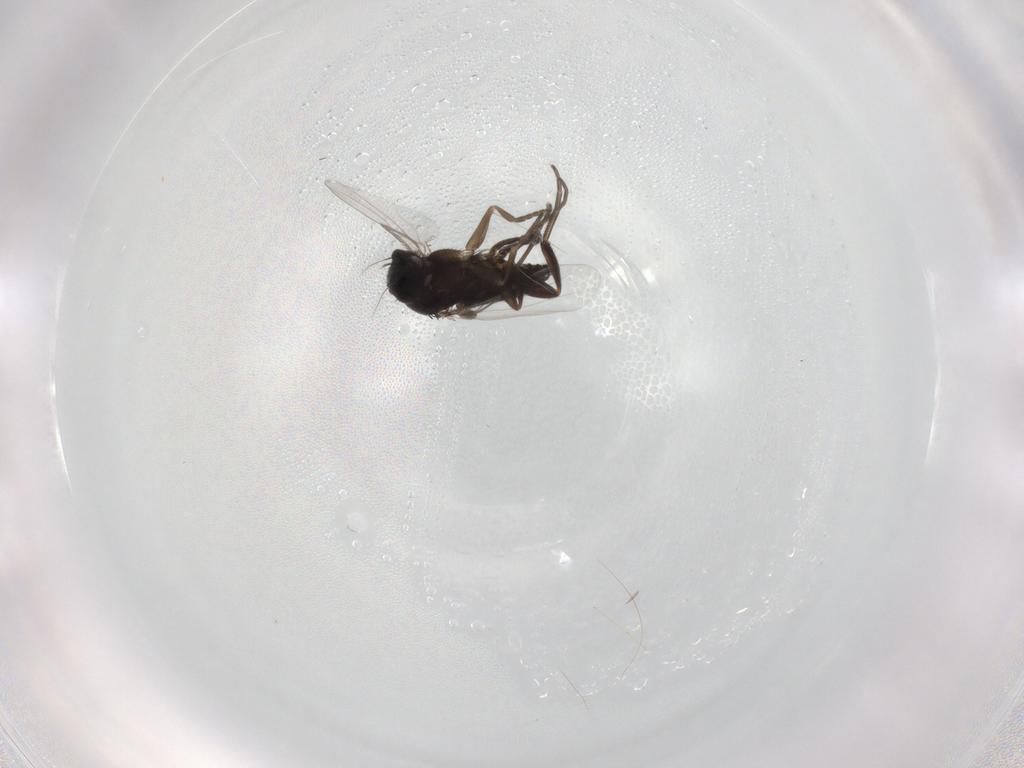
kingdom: Animalia
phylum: Arthropoda
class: Insecta
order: Diptera
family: Phoridae
